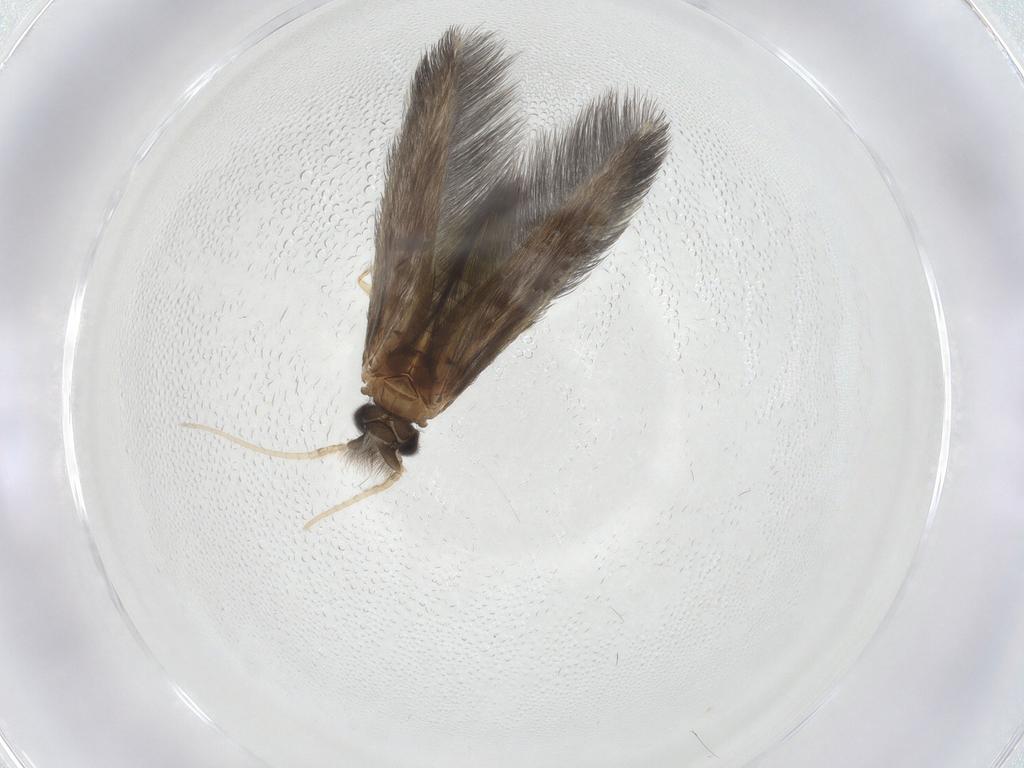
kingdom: Animalia
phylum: Arthropoda
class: Insecta
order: Trichoptera
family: Hydroptilidae
